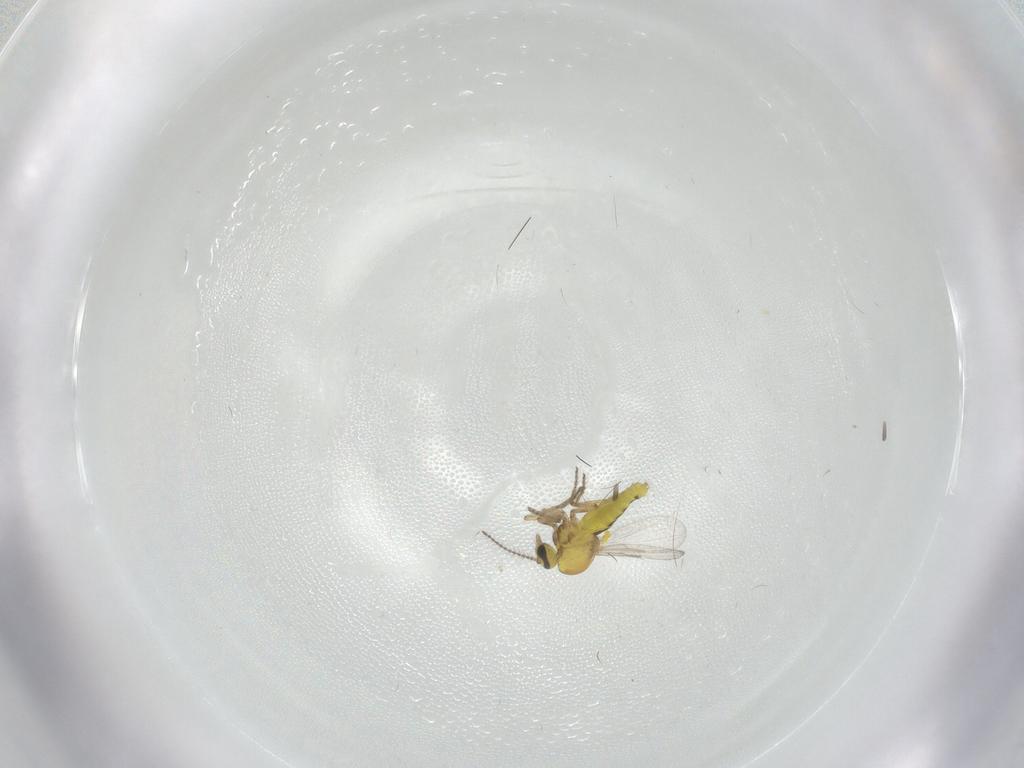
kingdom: Animalia
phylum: Arthropoda
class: Insecta
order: Diptera
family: Ceratopogonidae
